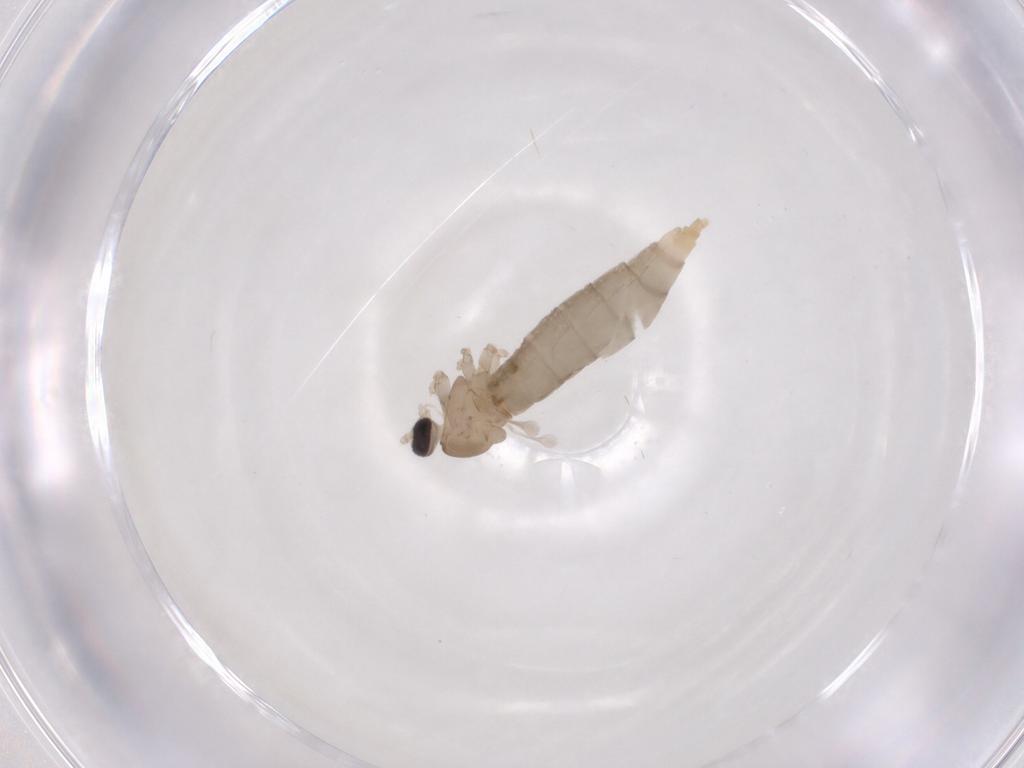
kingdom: Animalia
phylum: Arthropoda
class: Insecta
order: Diptera
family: Cecidomyiidae
